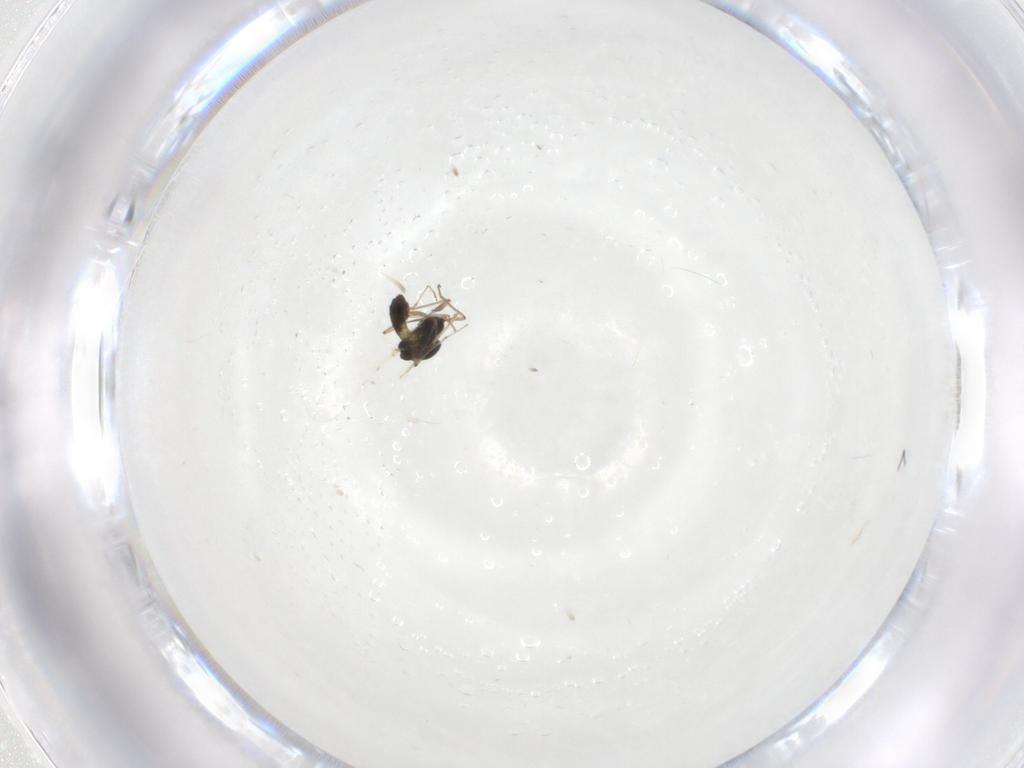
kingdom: Animalia
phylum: Arthropoda
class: Insecta
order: Diptera
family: Chironomidae
